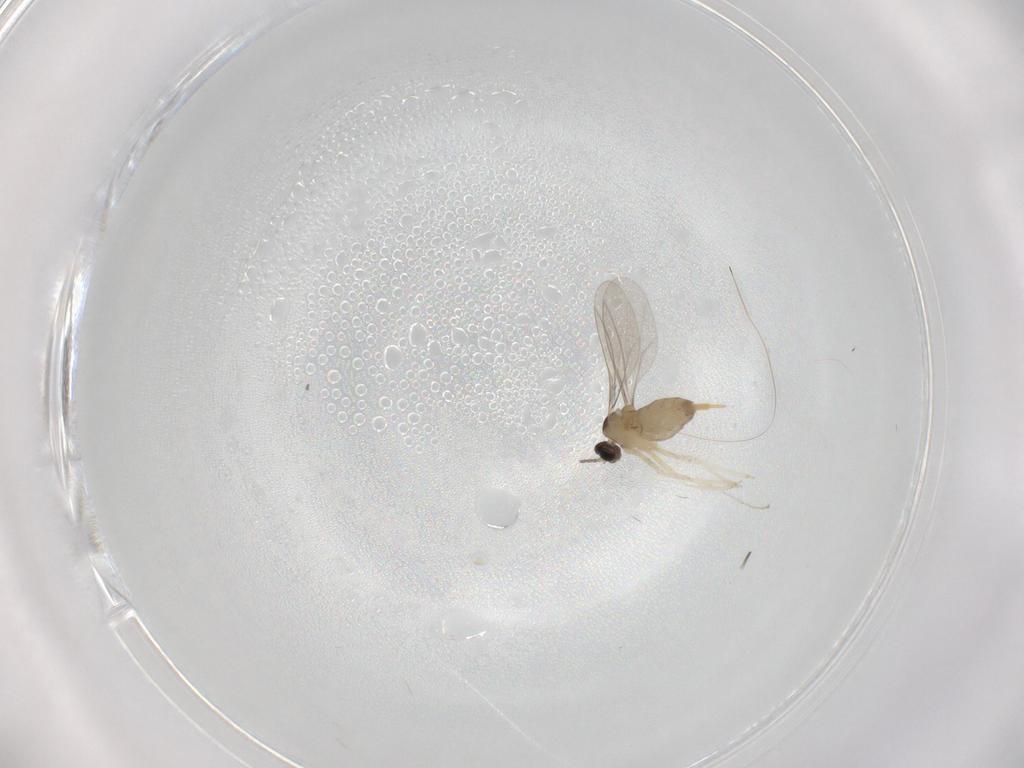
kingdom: Animalia
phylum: Arthropoda
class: Insecta
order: Diptera
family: Cecidomyiidae
